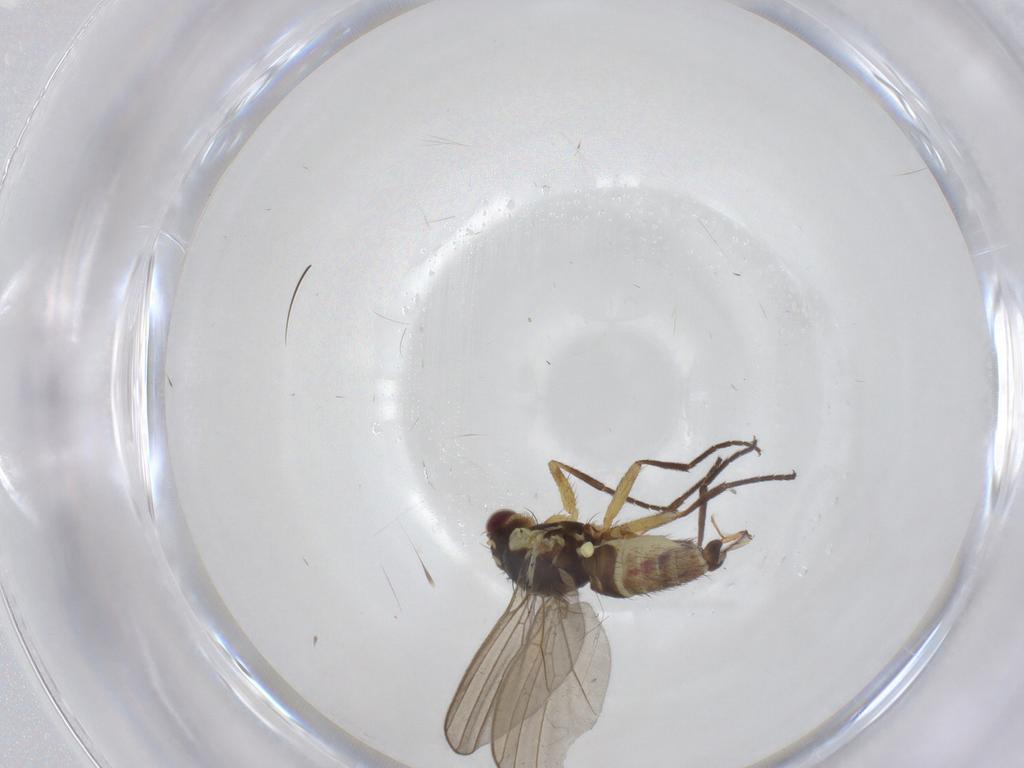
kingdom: Animalia
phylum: Arthropoda
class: Insecta
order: Diptera
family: Agromyzidae
